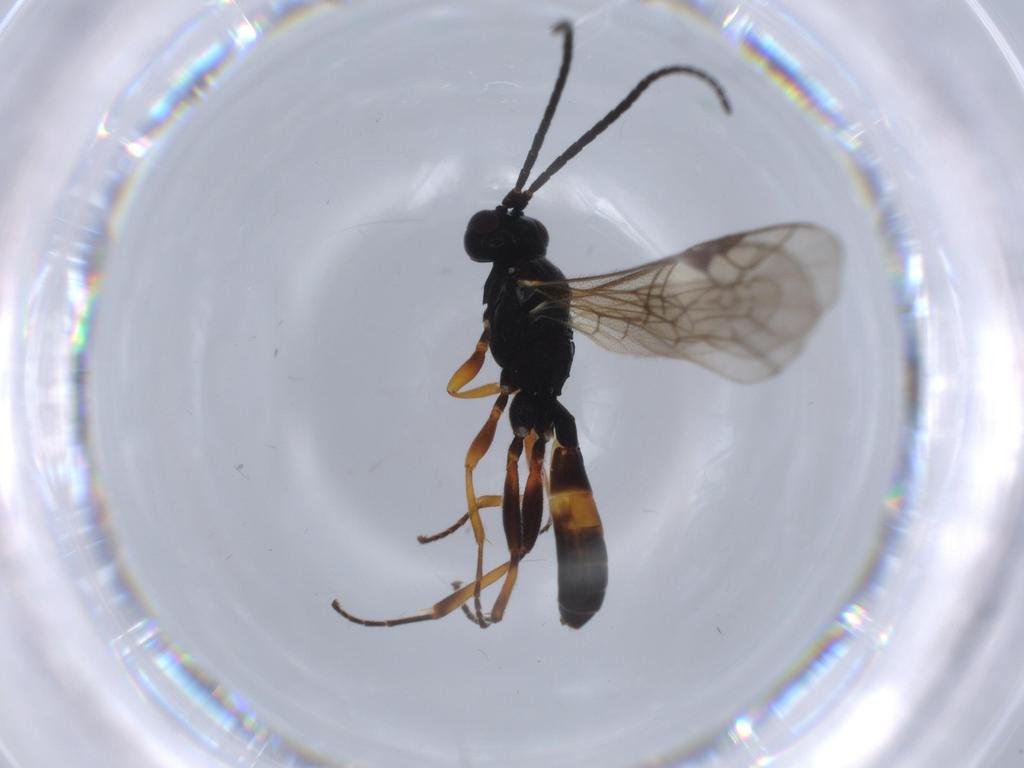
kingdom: Animalia
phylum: Arthropoda
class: Insecta
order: Hymenoptera
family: Ichneumonidae
